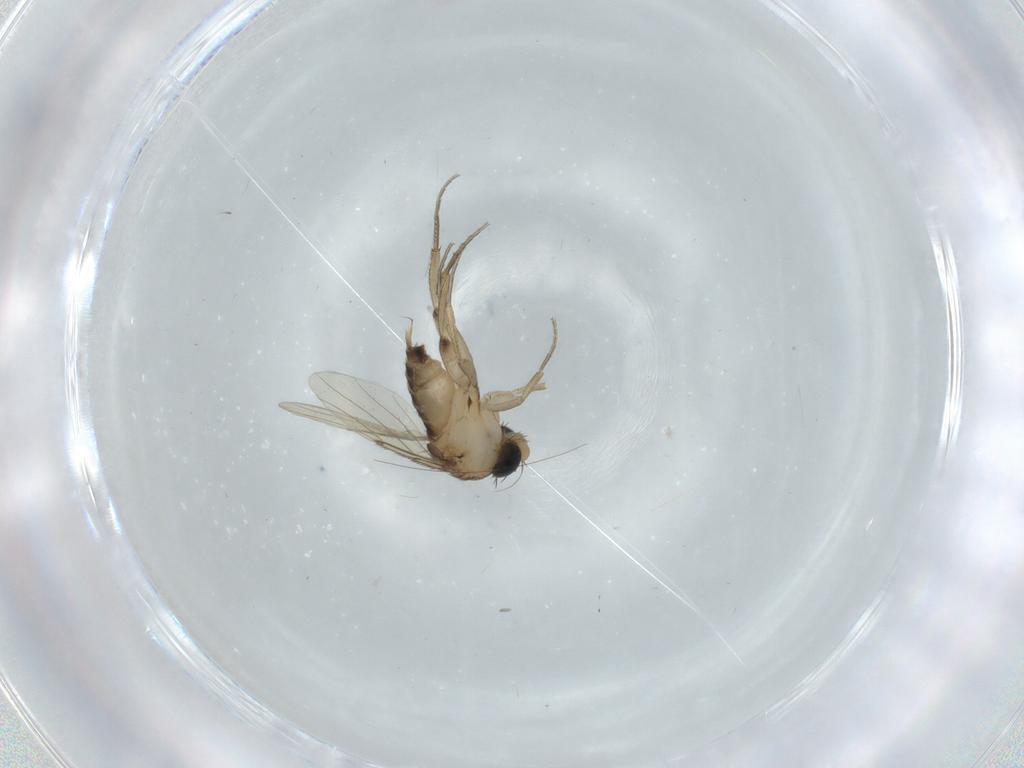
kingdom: Animalia
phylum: Arthropoda
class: Insecta
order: Diptera
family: Phoridae
